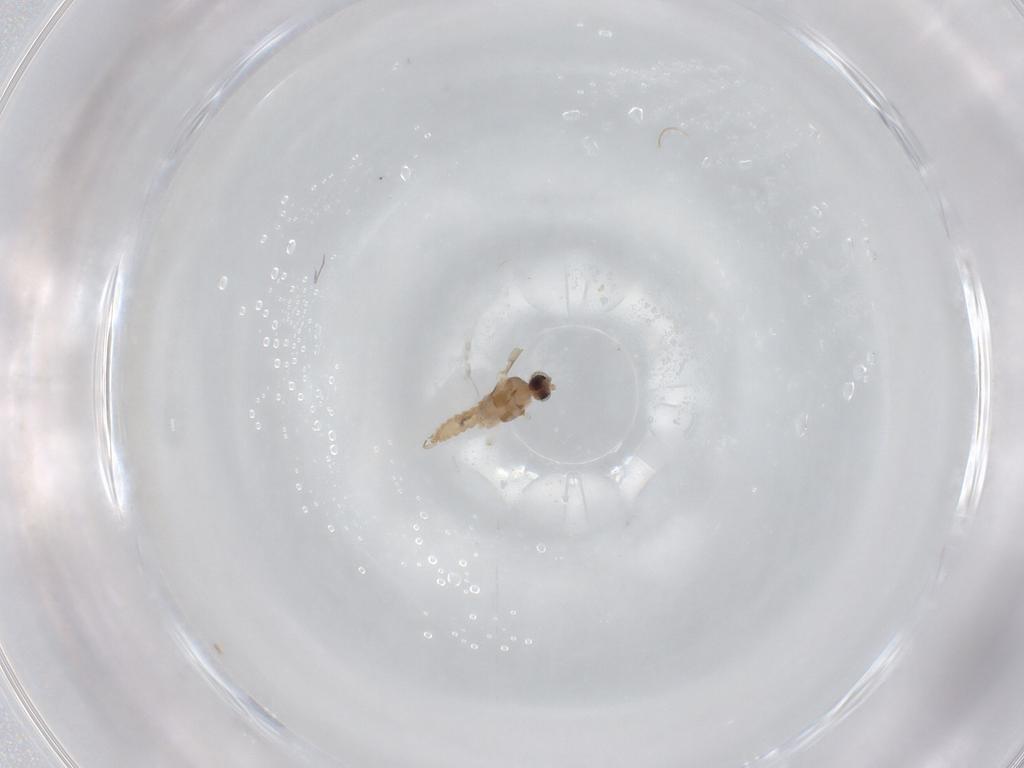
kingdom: Animalia
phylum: Arthropoda
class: Insecta
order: Diptera
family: Cecidomyiidae
